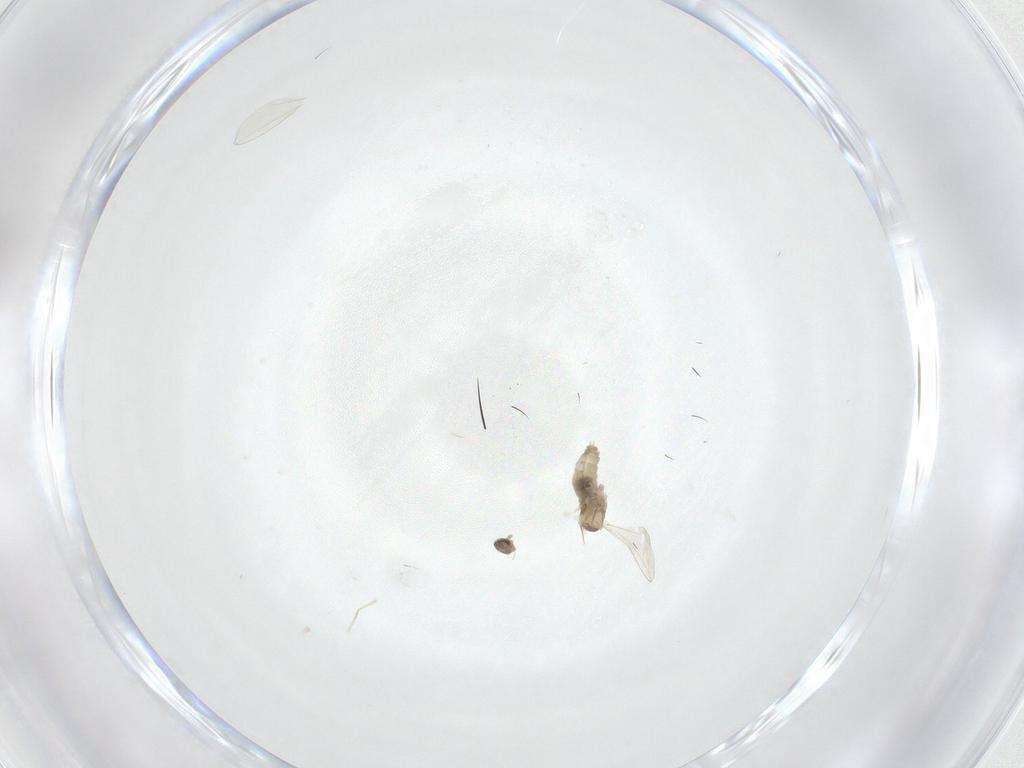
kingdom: Animalia
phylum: Arthropoda
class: Insecta
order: Diptera
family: Cecidomyiidae
